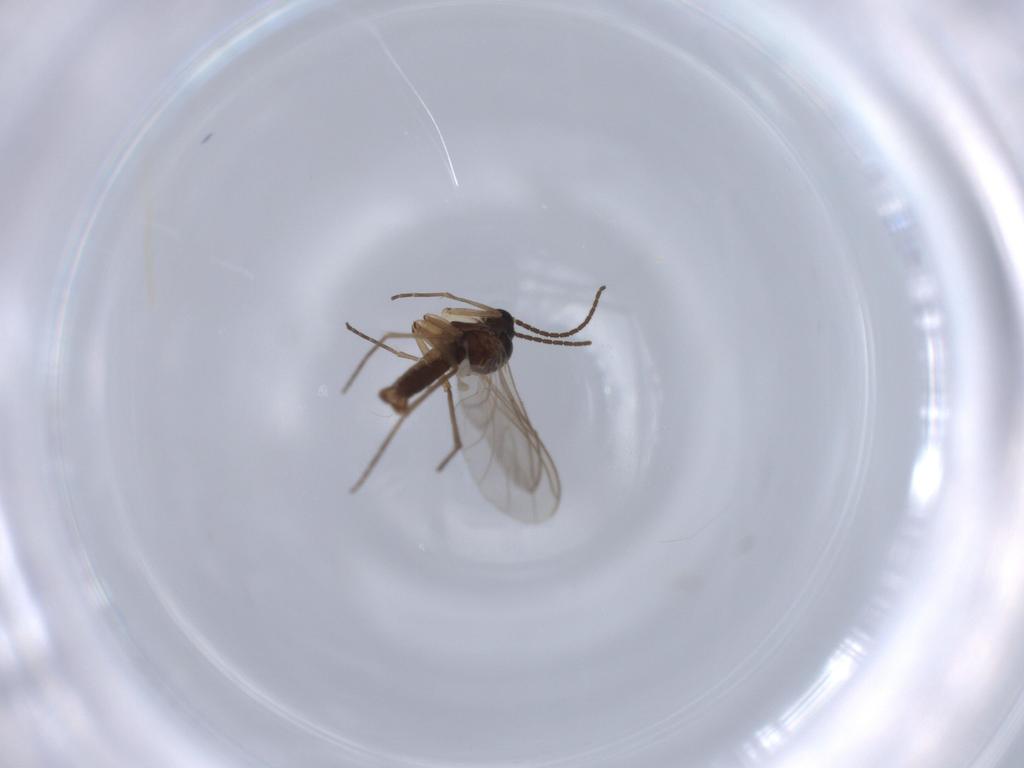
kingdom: Animalia
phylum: Arthropoda
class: Insecta
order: Diptera
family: Sciaridae
